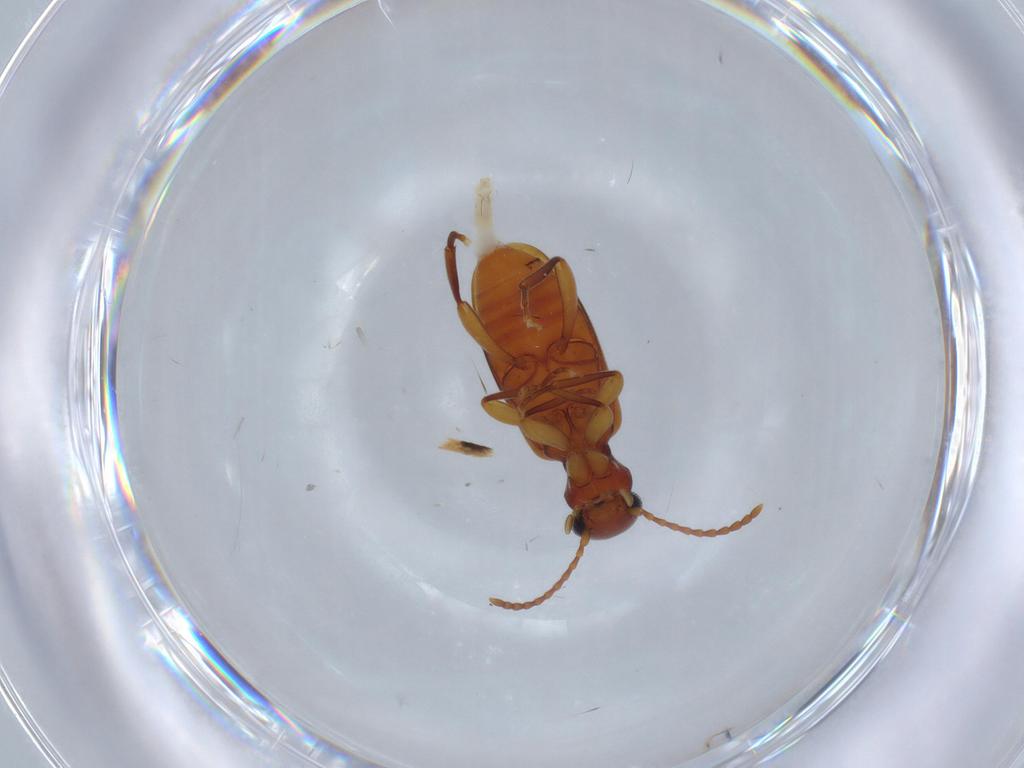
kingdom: Animalia
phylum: Arthropoda
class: Insecta
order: Coleoptera
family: Anthicidae
